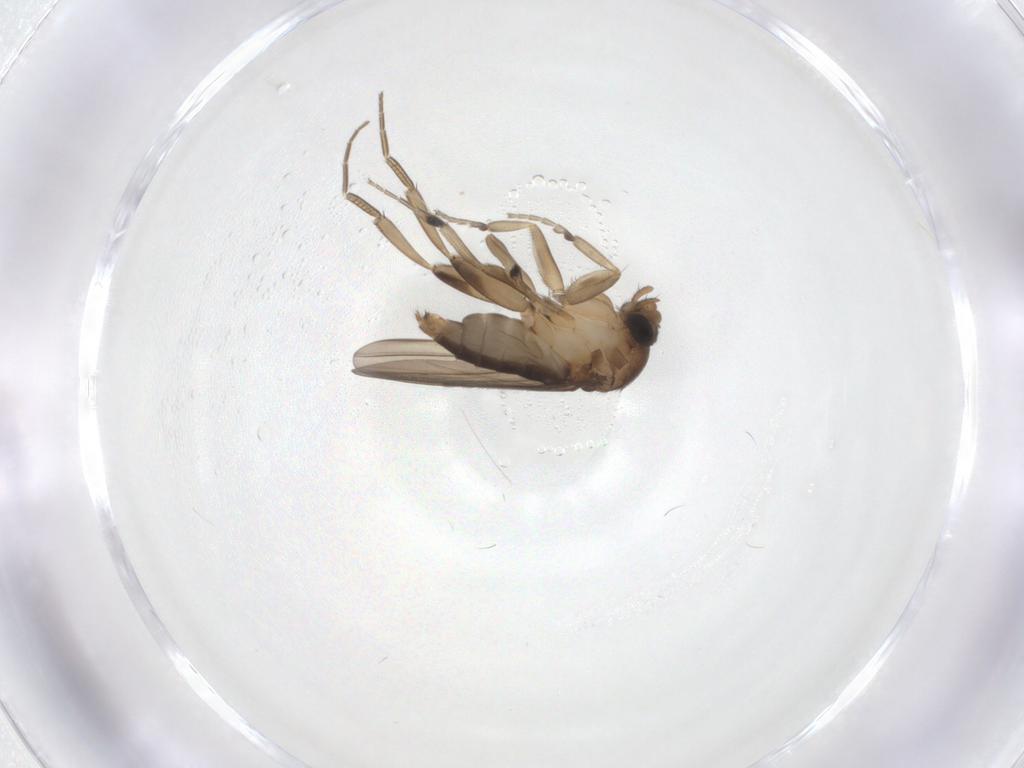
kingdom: Animalia
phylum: Arthropoda
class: Insecta
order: Diptera
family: Phoridae
